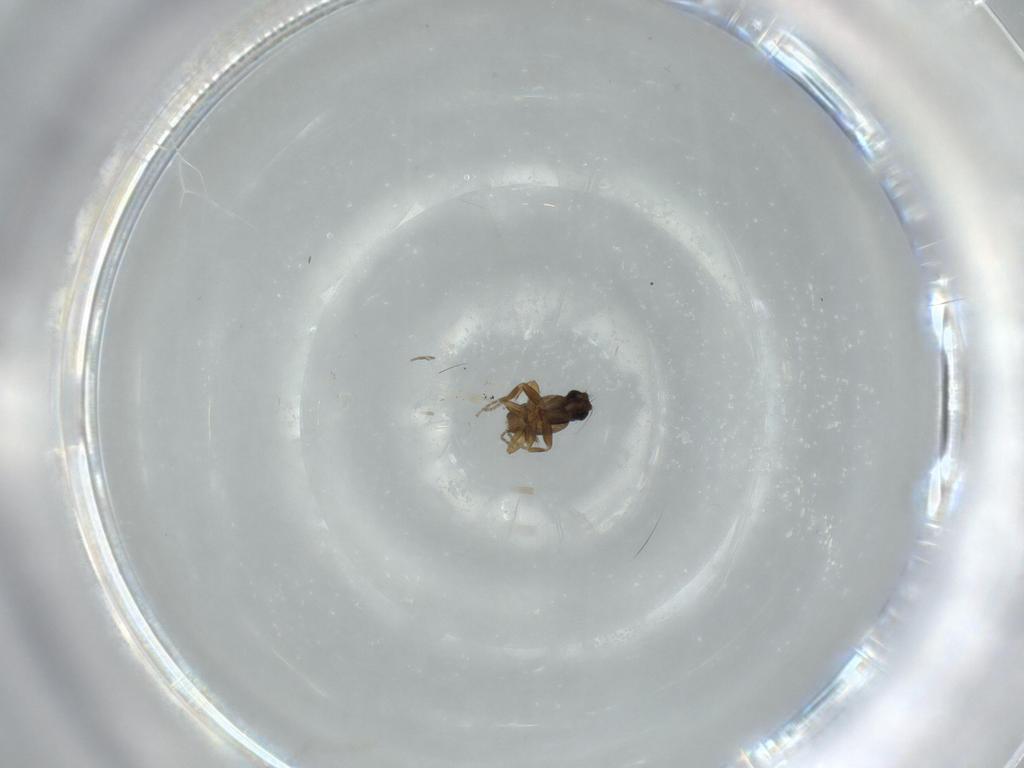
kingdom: Animalia
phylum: Arthropoda
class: Insecta
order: Diptera
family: Phoridae
